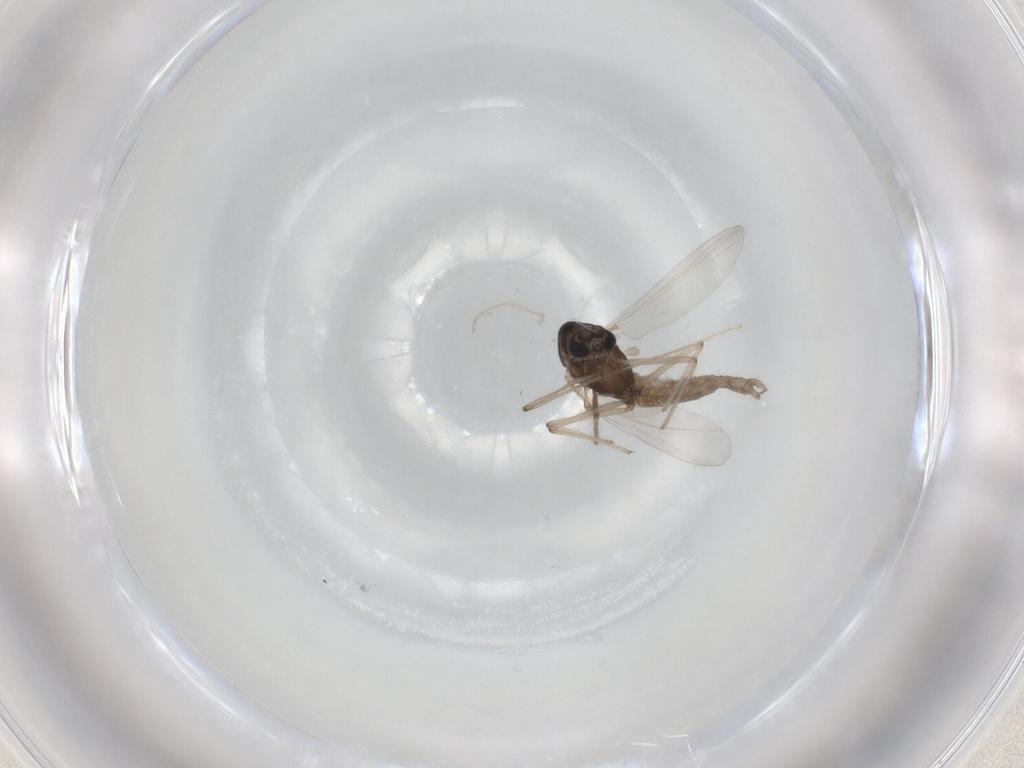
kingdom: Animalia
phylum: Arthropoda
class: Insecta
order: Diptera
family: Chironomidae
